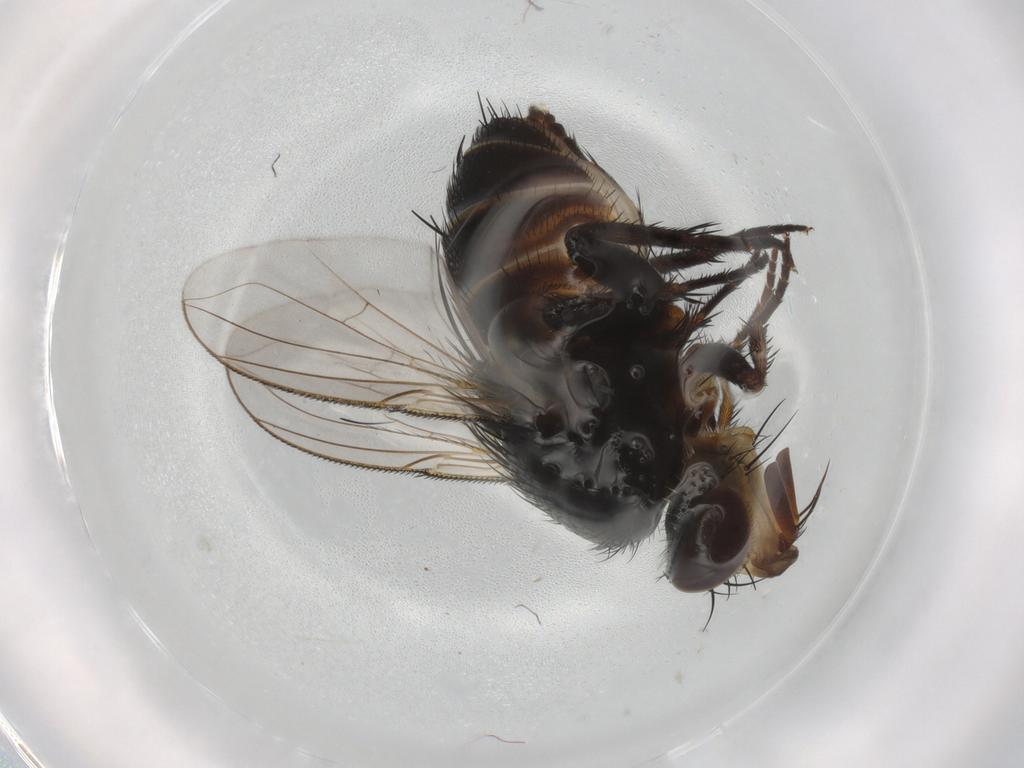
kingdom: Animalia
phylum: Arthropoda
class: Insecta
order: Diptera
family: Tachinidae
